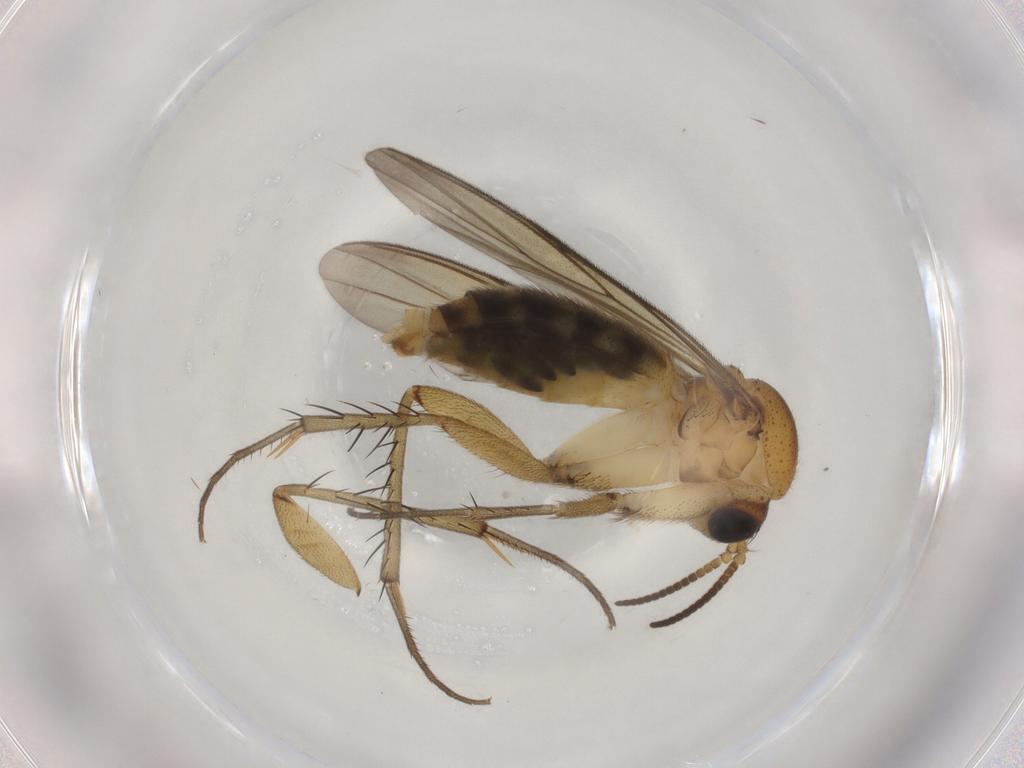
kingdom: Animalia
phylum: Arthropoda
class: Insecta
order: Diptera
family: Heleomyzidae
